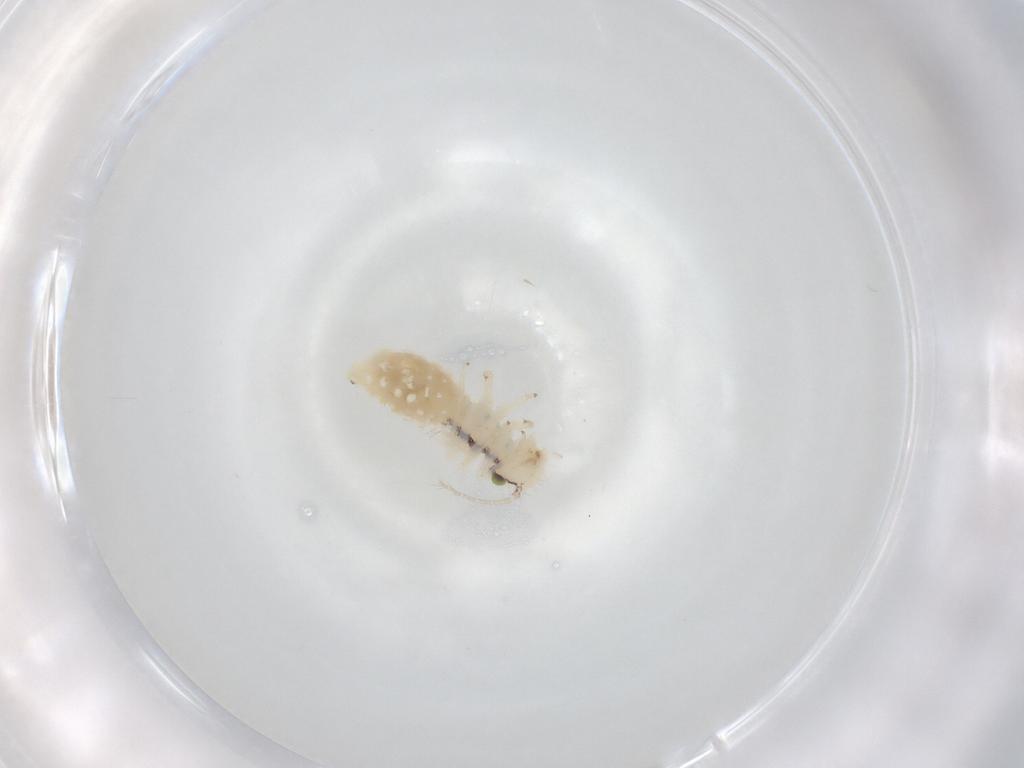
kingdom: Animalia
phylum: Arthropoda
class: Insecta
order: Psocodea
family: Philotarsidae
